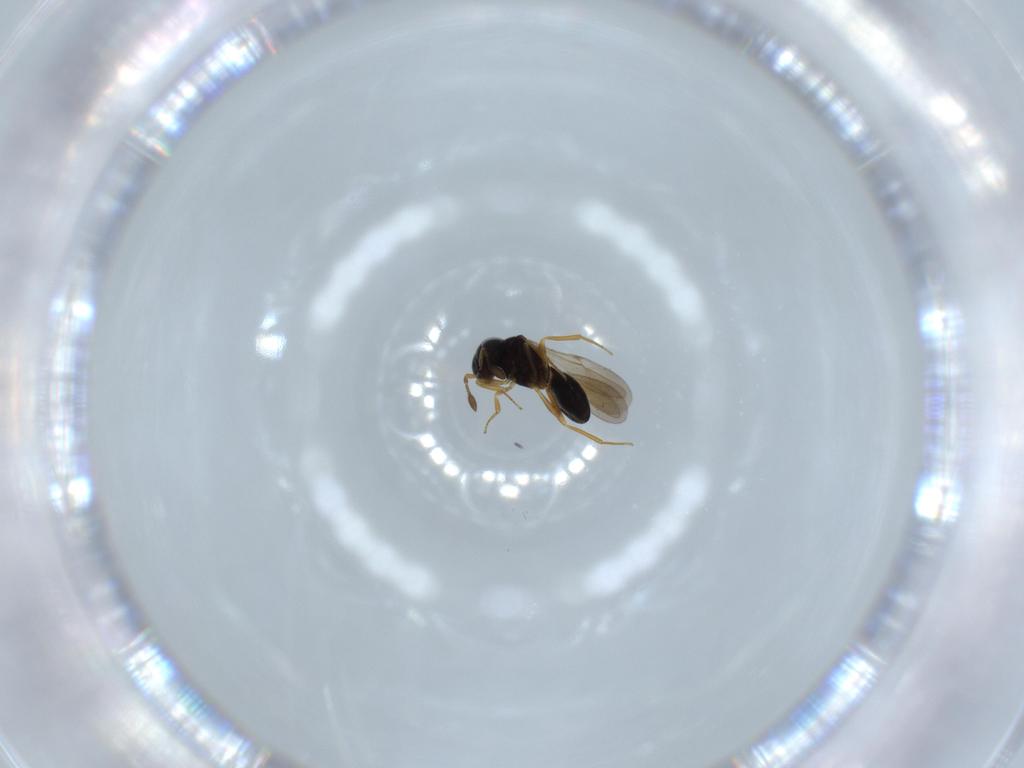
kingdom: Animalia
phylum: Arthropoda
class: Insecta
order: Hymenoptera
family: Scelionidae
